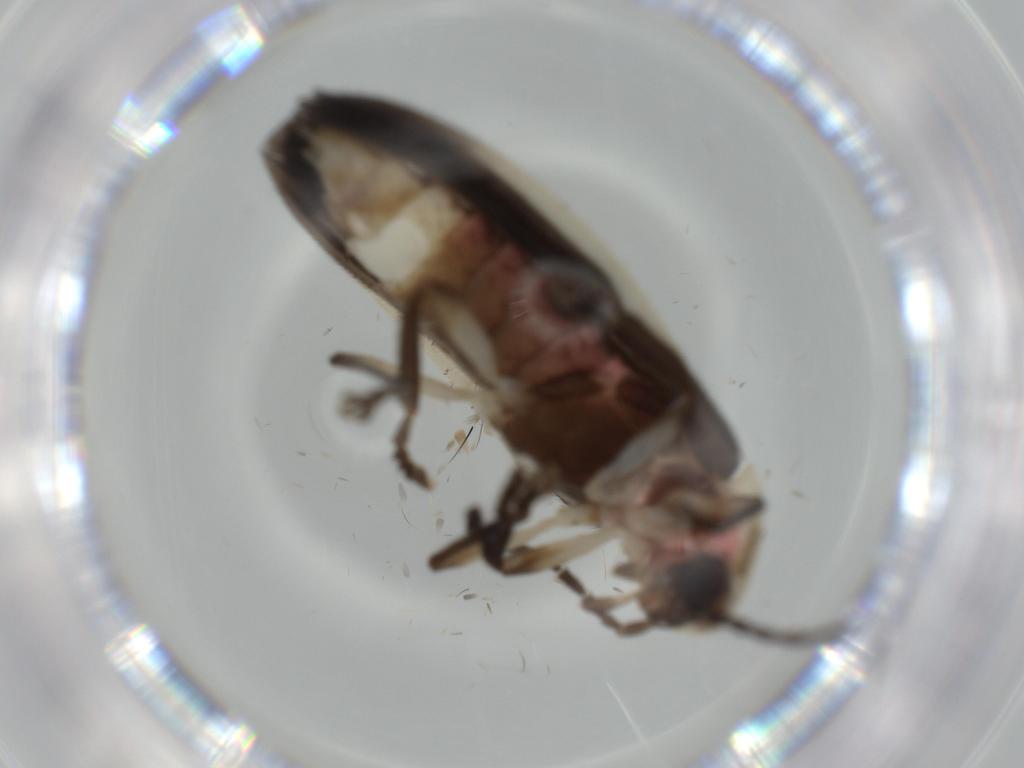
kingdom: Animalia
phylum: Arthropoda
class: Insecta
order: Coleoptera
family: Lampyridae
